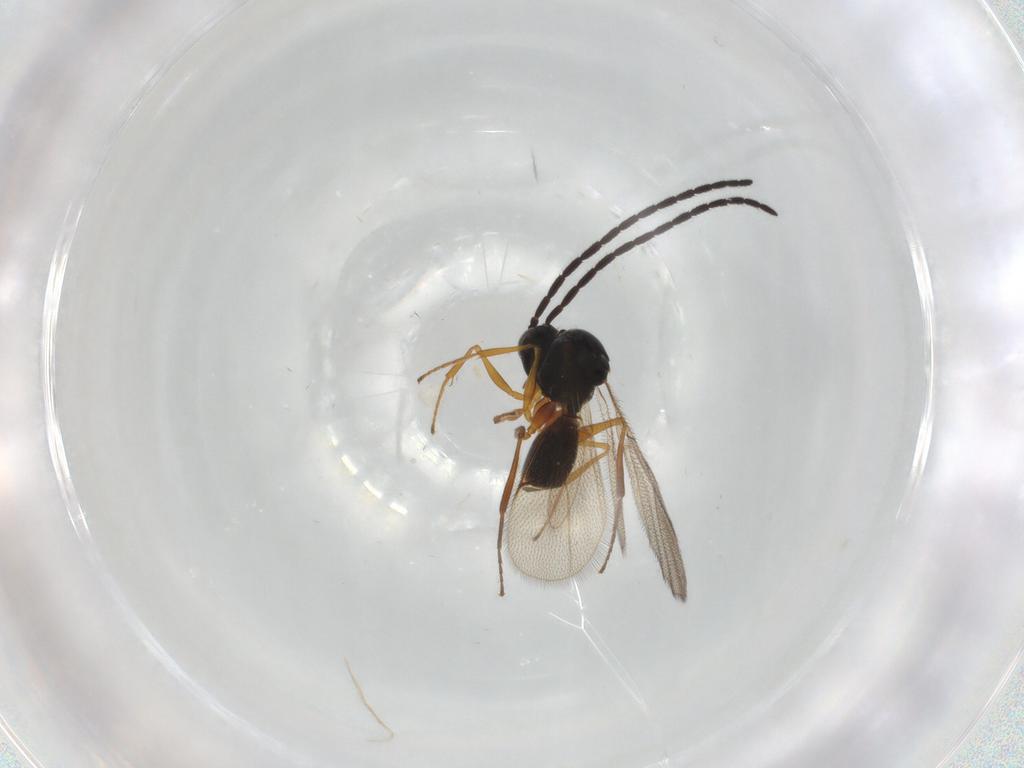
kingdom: Animalia
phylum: Arthropoda
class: Insecta
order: Hymenoptera
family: Figitidae
